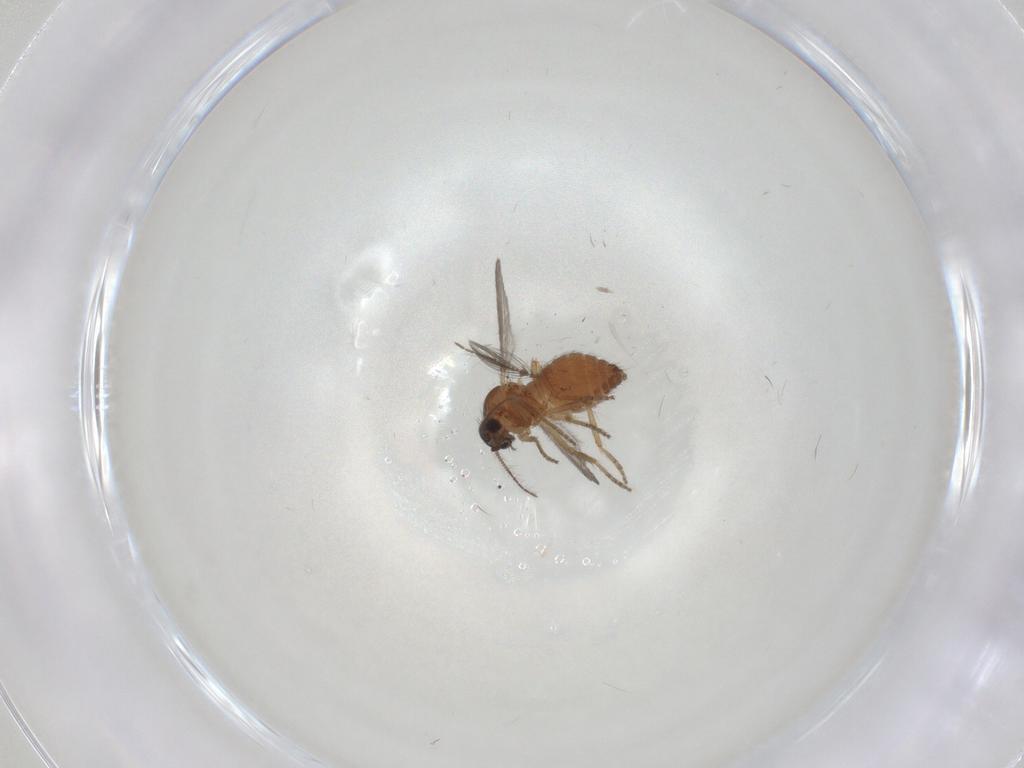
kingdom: Animalia
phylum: Arthropoda
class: Insecta
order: Diptera
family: Ceratopogonidae
